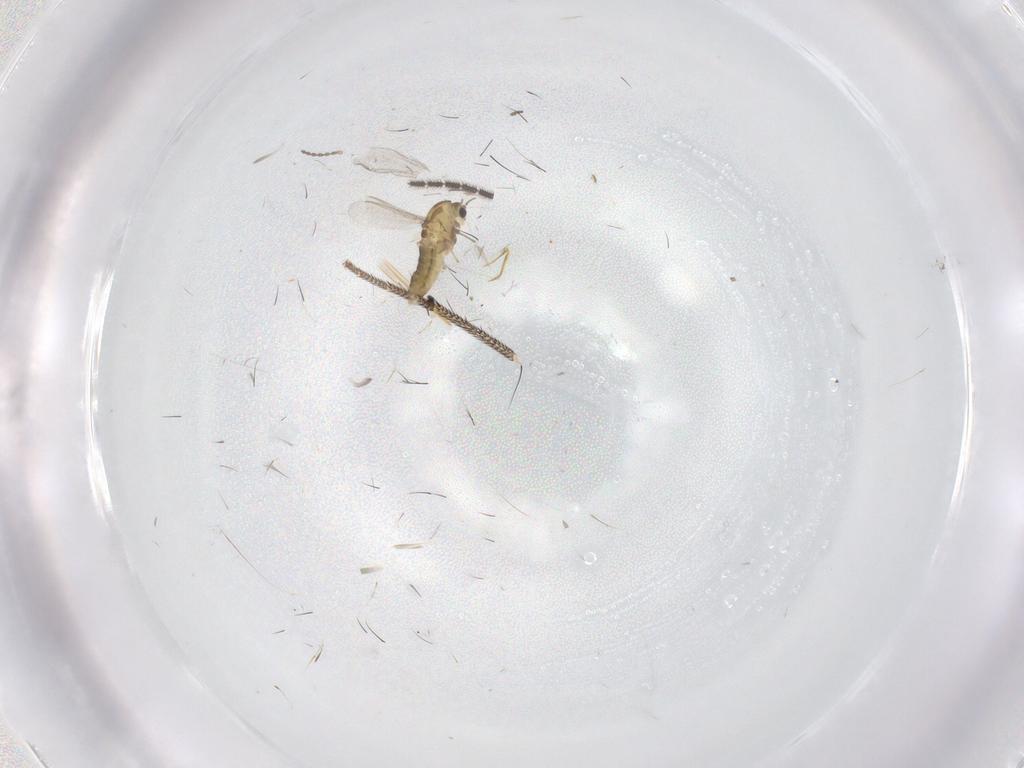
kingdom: Animalia
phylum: Arthropoda
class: Insecta
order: Diptera
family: Chironomidae
